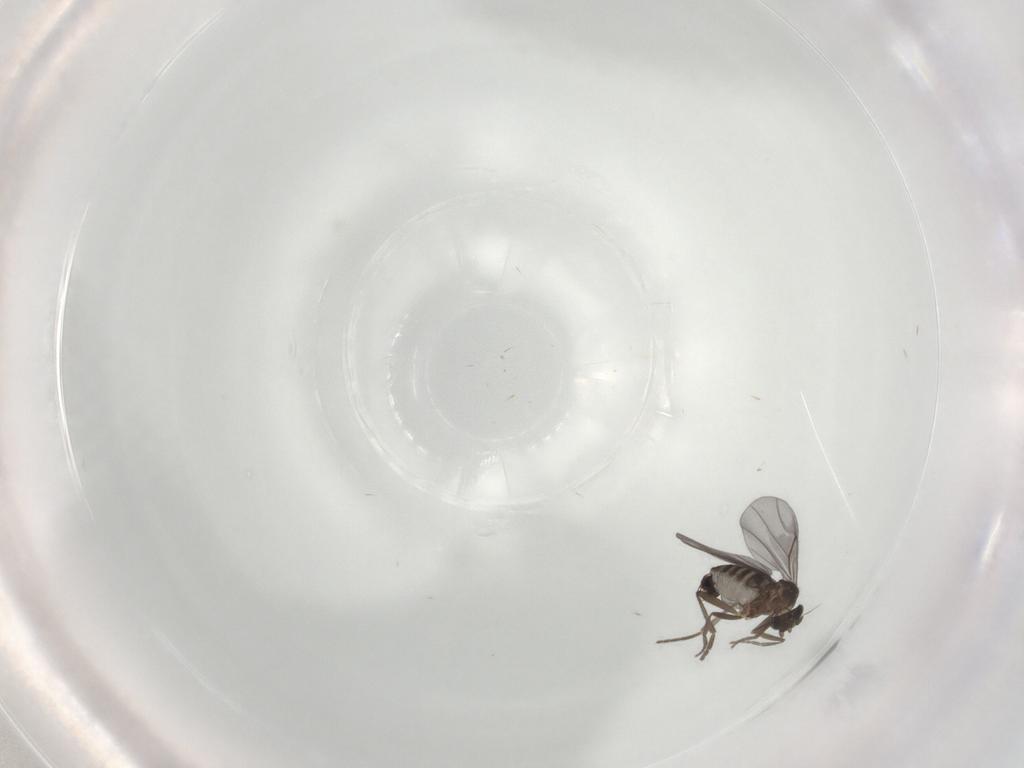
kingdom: Animalia
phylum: Arthropoda
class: Insecta
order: Diptera
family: Phoridae
